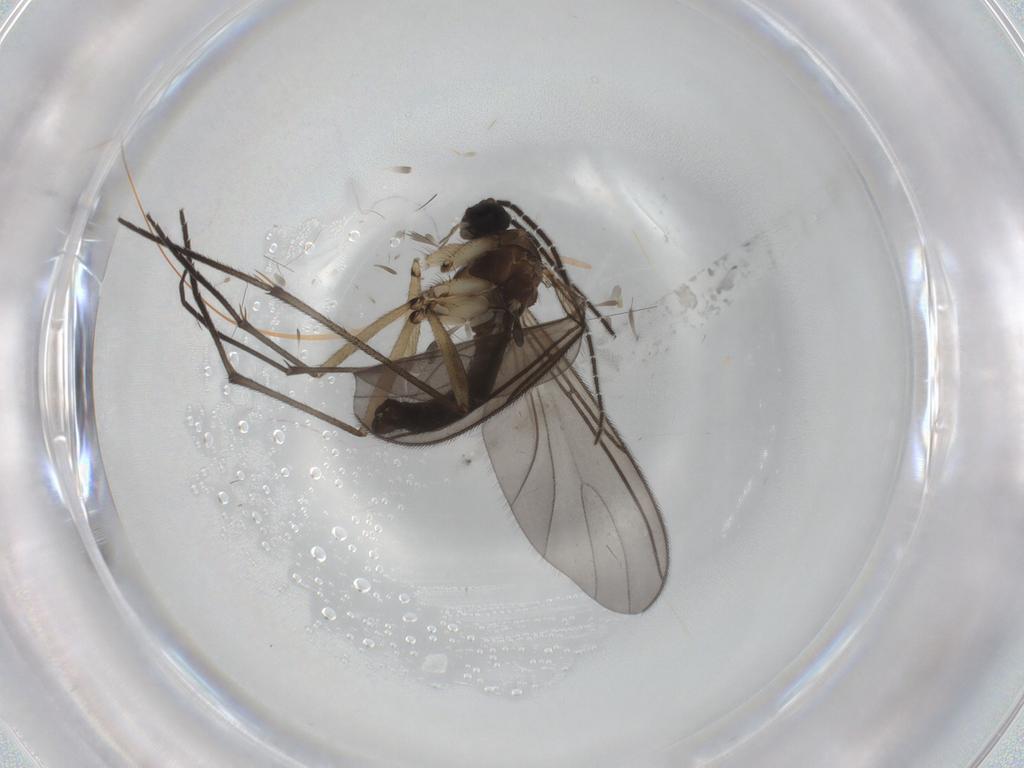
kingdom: Animalia
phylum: Arthropoda
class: Insecta
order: Diptera
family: Sciaridae
